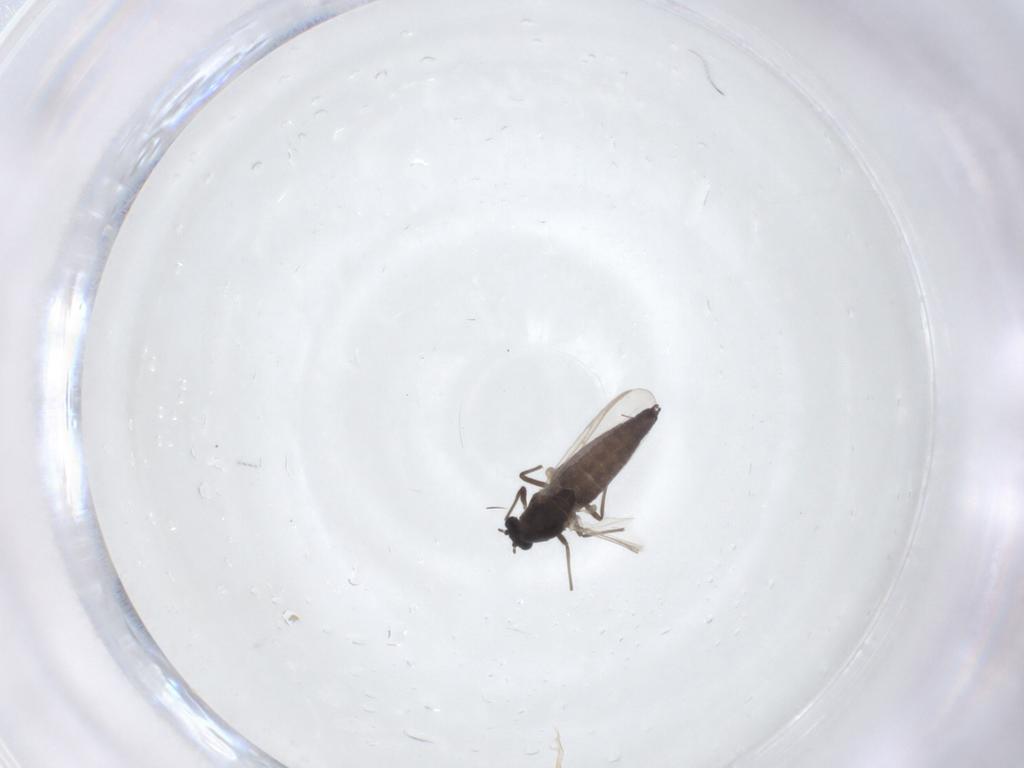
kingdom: Animalia
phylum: Arthropoda
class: Insecta
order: Diptera
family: Chironomidae
